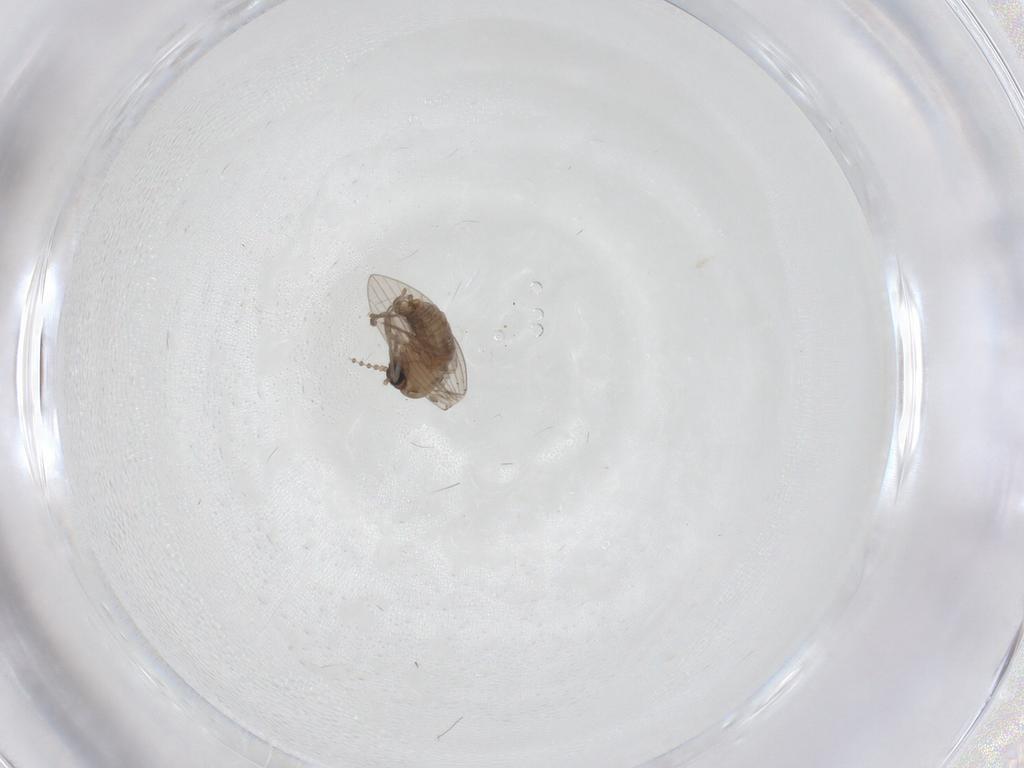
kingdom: Animalia
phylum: Arthropoda
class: Insecta
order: Diptera
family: Psychodidae
